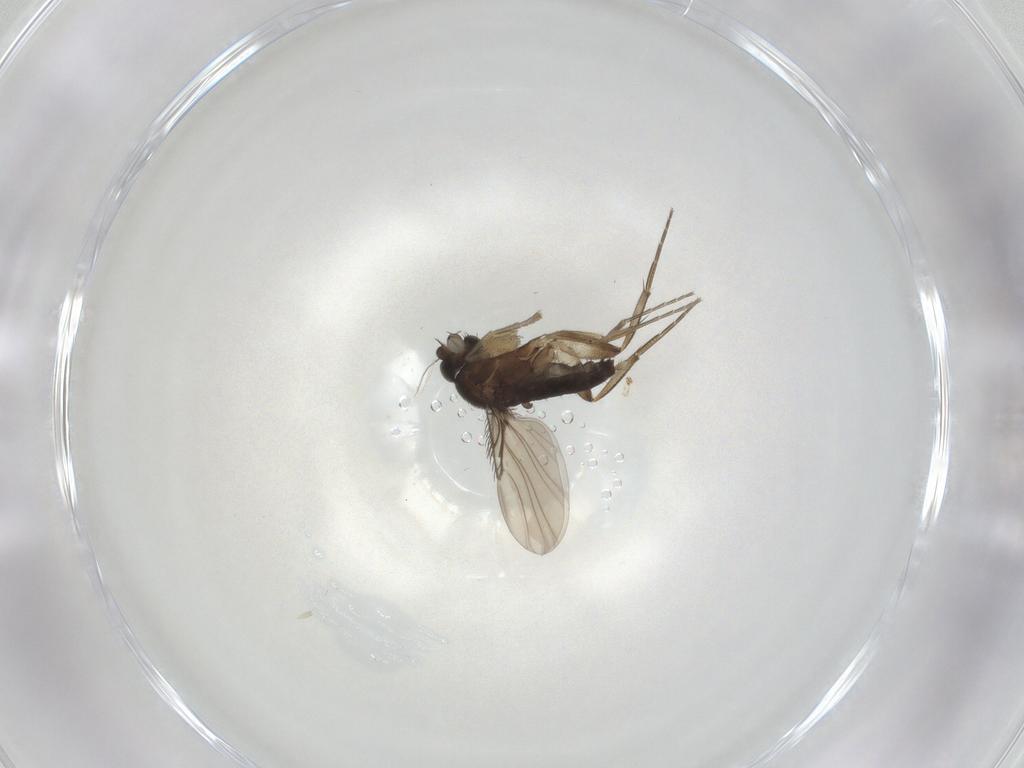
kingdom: Animalia
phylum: Arthropoda
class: Insecta
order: Diptera
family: Phoridae
